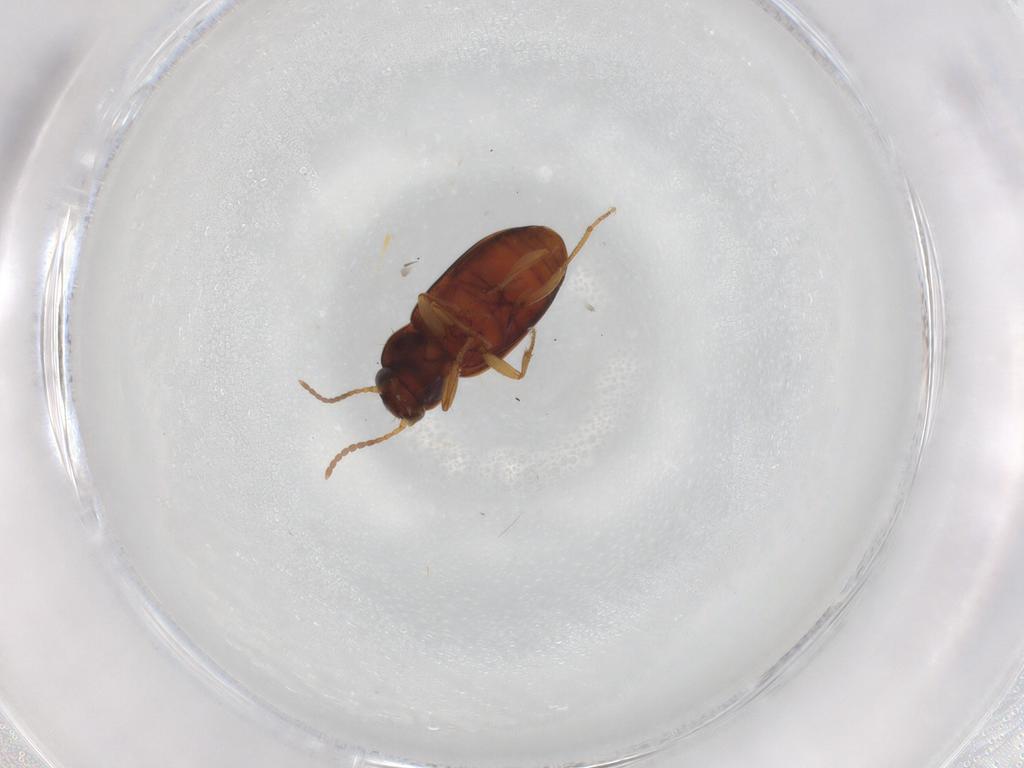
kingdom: Animalia
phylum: Arthropoda
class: Insecta
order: Coleoptera
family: Carabidae
